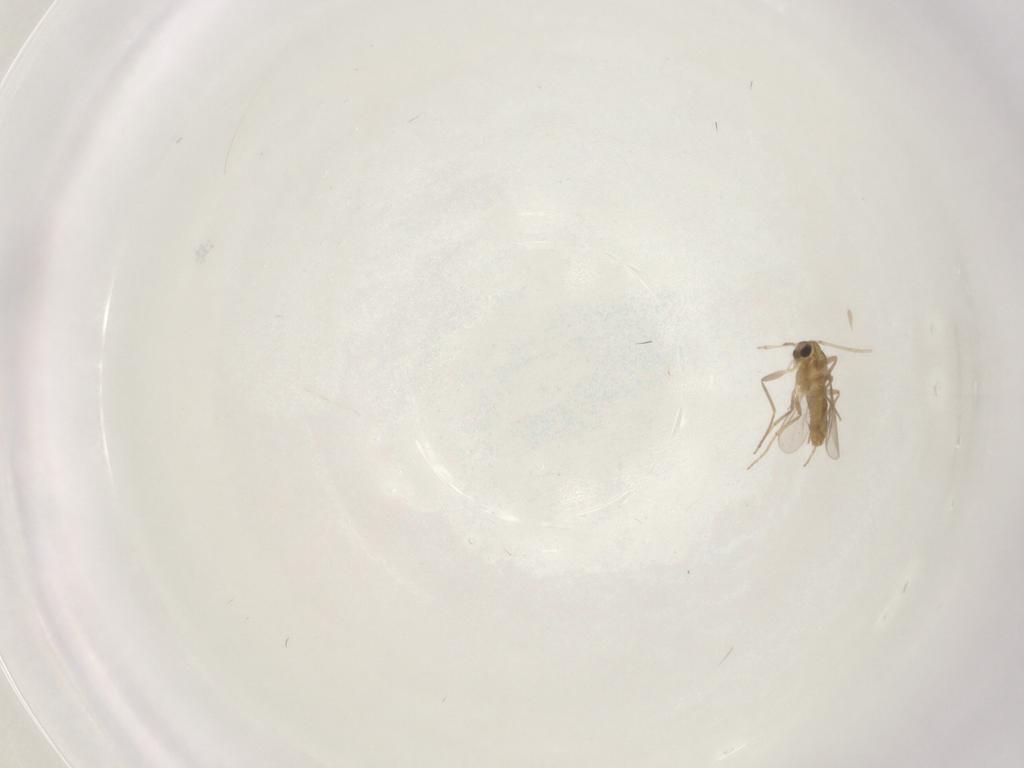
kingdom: Animalia
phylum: Arthropoda
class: Insecta
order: Diptera
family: Chironomidae
